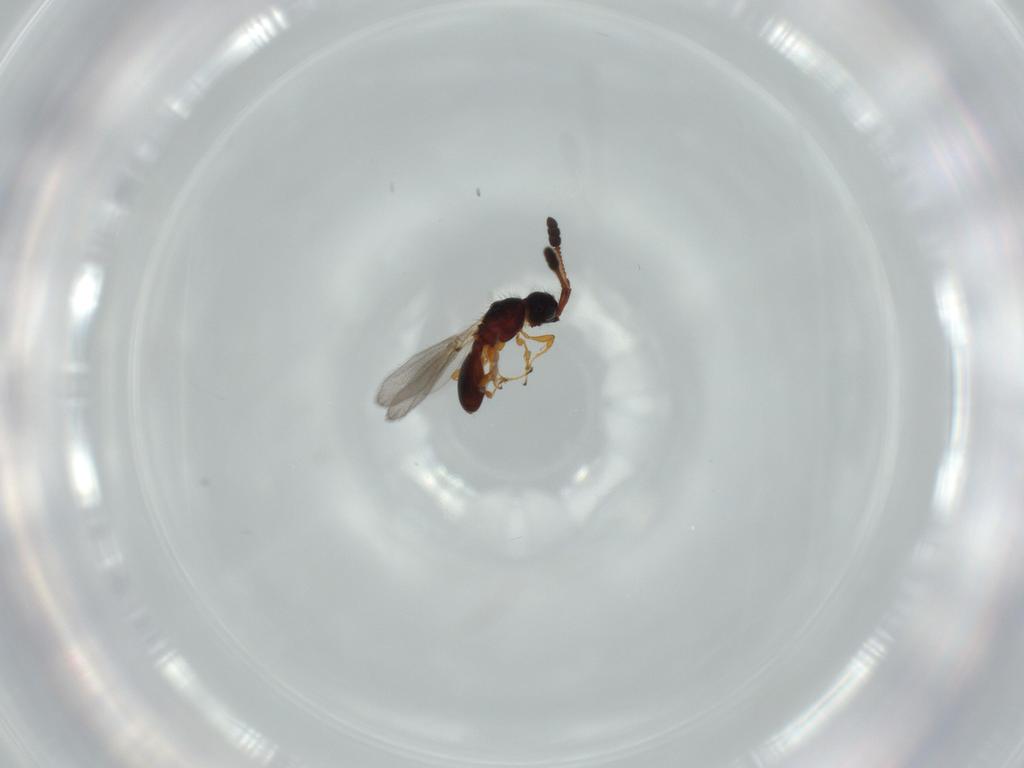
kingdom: Animalia
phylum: Arthropoda
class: Insecta
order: Hymenoptera
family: Diapriidae
